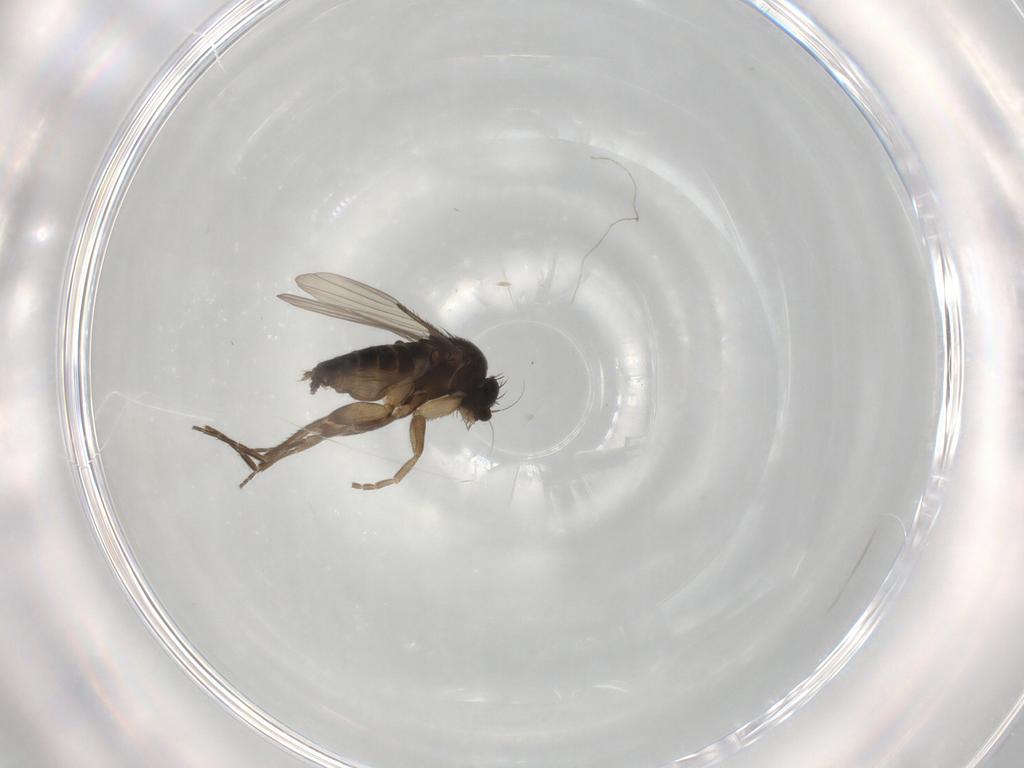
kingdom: Animalia
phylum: Arthropoda
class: Insecta
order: Diptera
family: Phoridae
